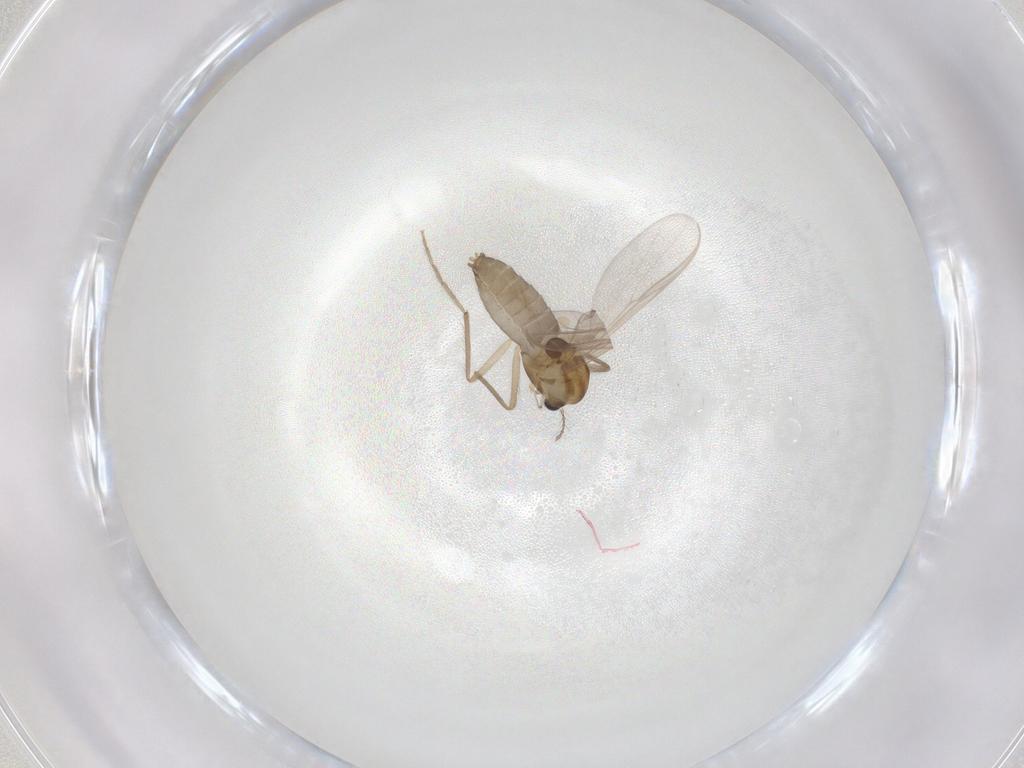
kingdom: Animalia
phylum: Arthropoda
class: Insecta
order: Diptera
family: Chironomidae
